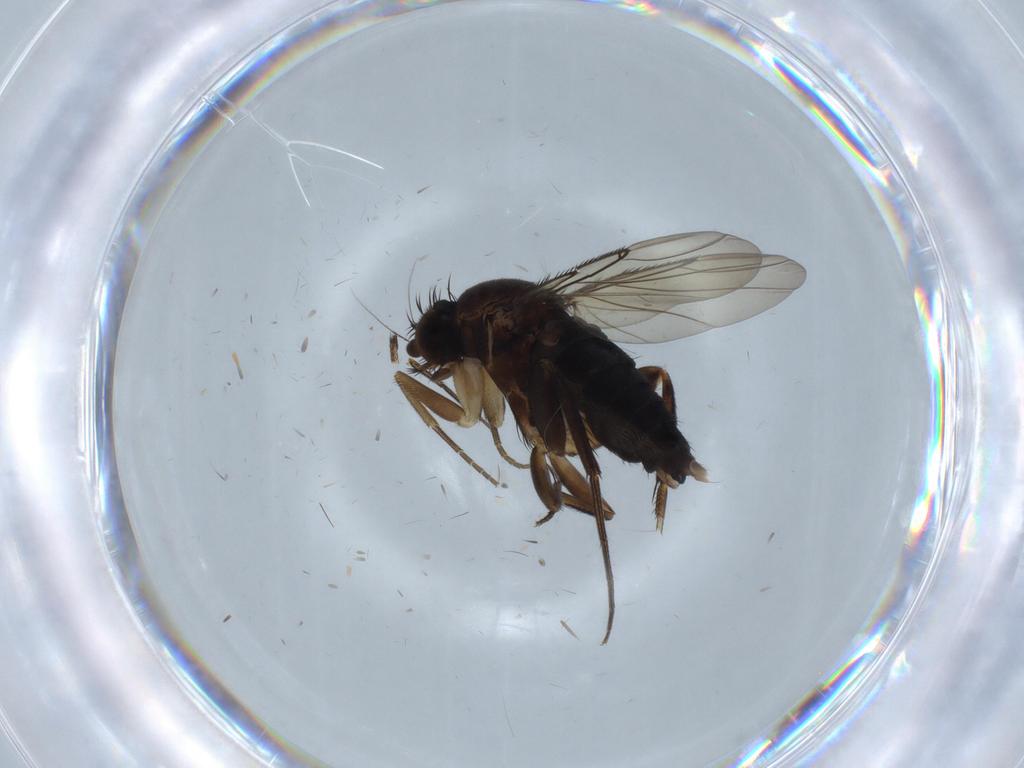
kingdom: Animalia
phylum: Arthropoda
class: Insecta
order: Diptera
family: Phoridae
